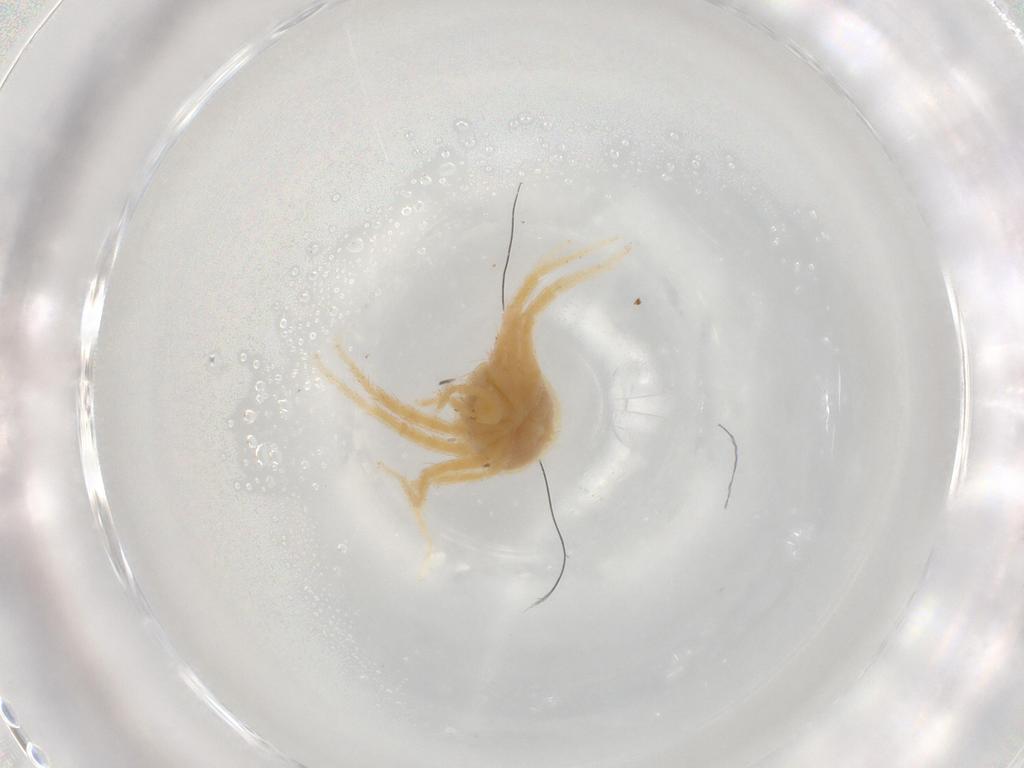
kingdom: Animalia
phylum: Arthropoda
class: Arachnida
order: Trombidiformes
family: Anystidae
